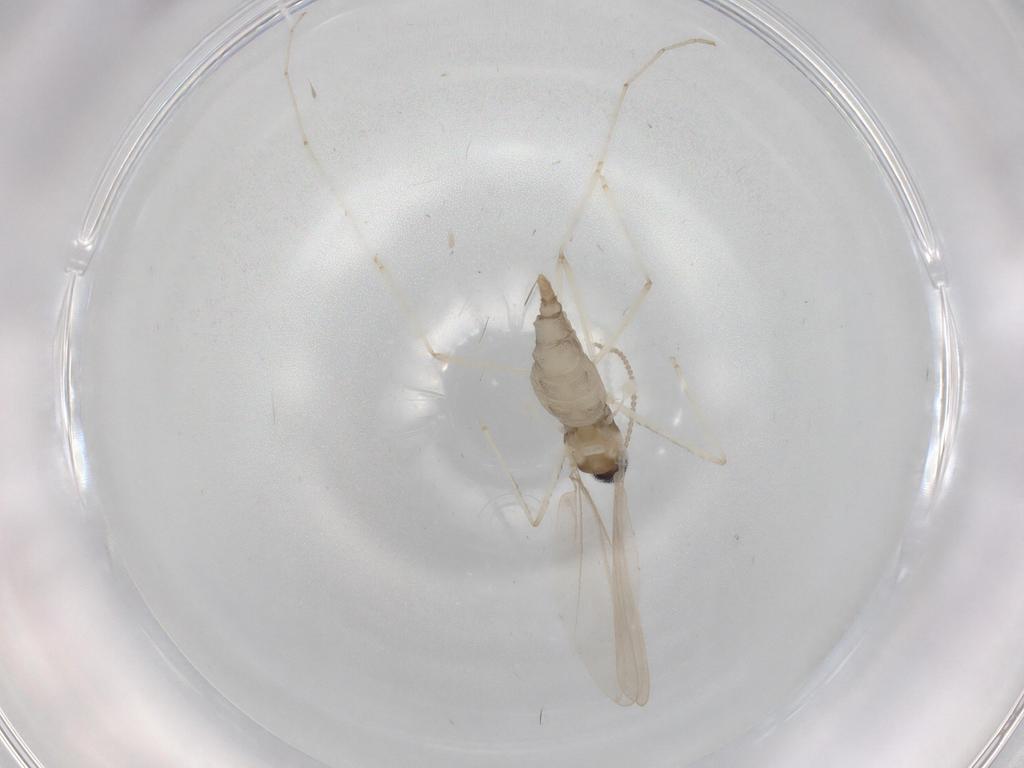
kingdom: Animalia
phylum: Arthropoda
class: Insecta
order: Diptera
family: Cecidomyiidae
